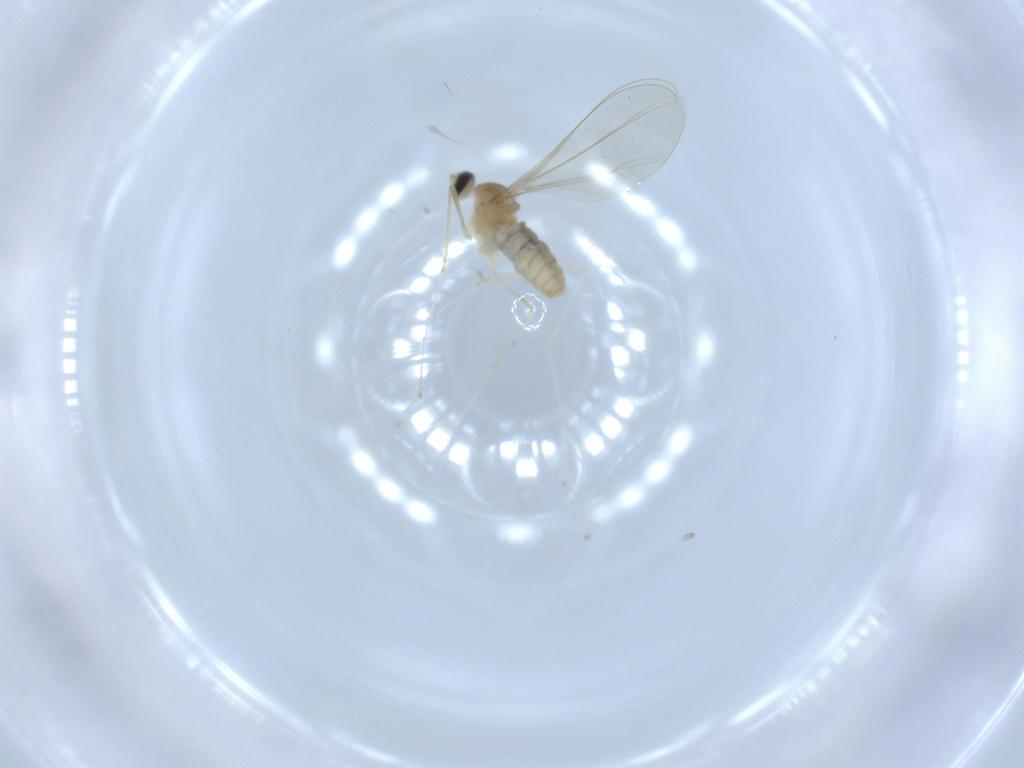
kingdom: Animalia
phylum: Arthropoda
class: Insecta
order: Diptera
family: Cecidomyiidae
